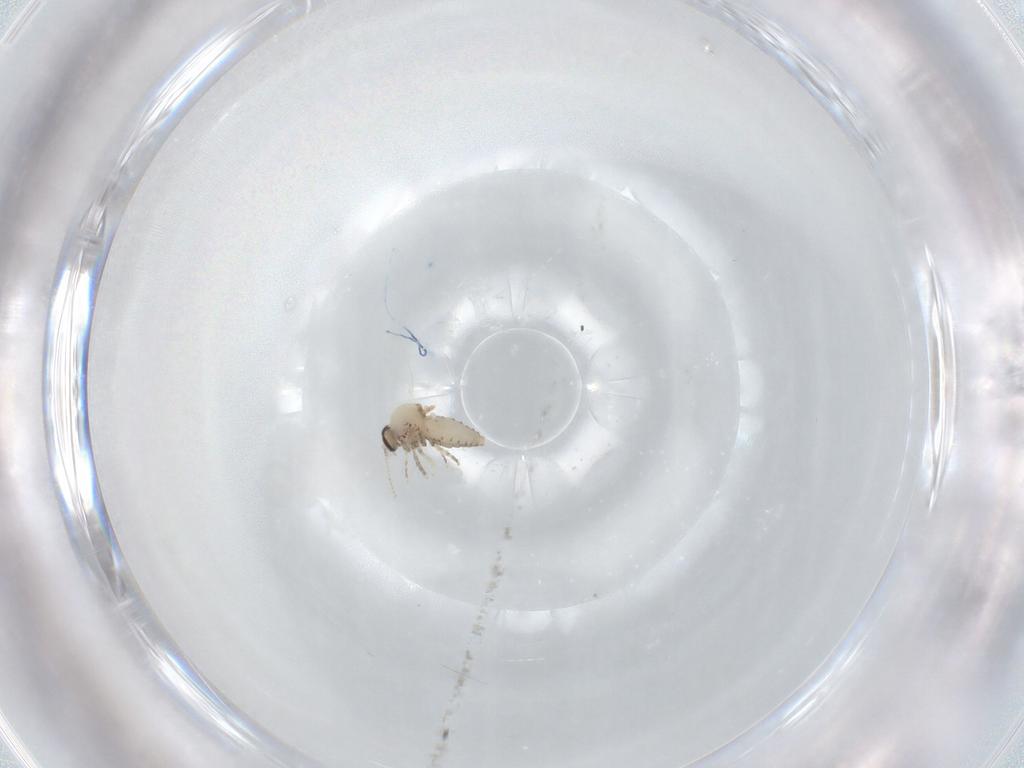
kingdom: Animalia
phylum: Arthropoda
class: Insecta
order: Diptera
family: Ceratopogonidae
